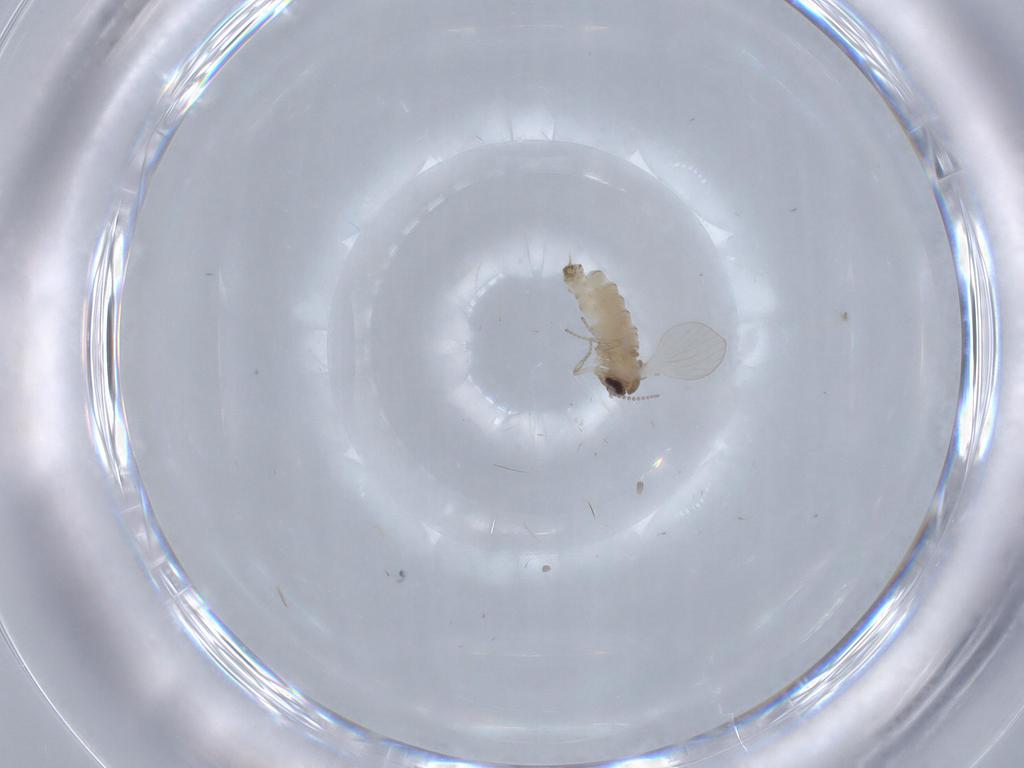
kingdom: Animalia
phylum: Arthropoda
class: Insecta
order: Diptera
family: Psychodidae
